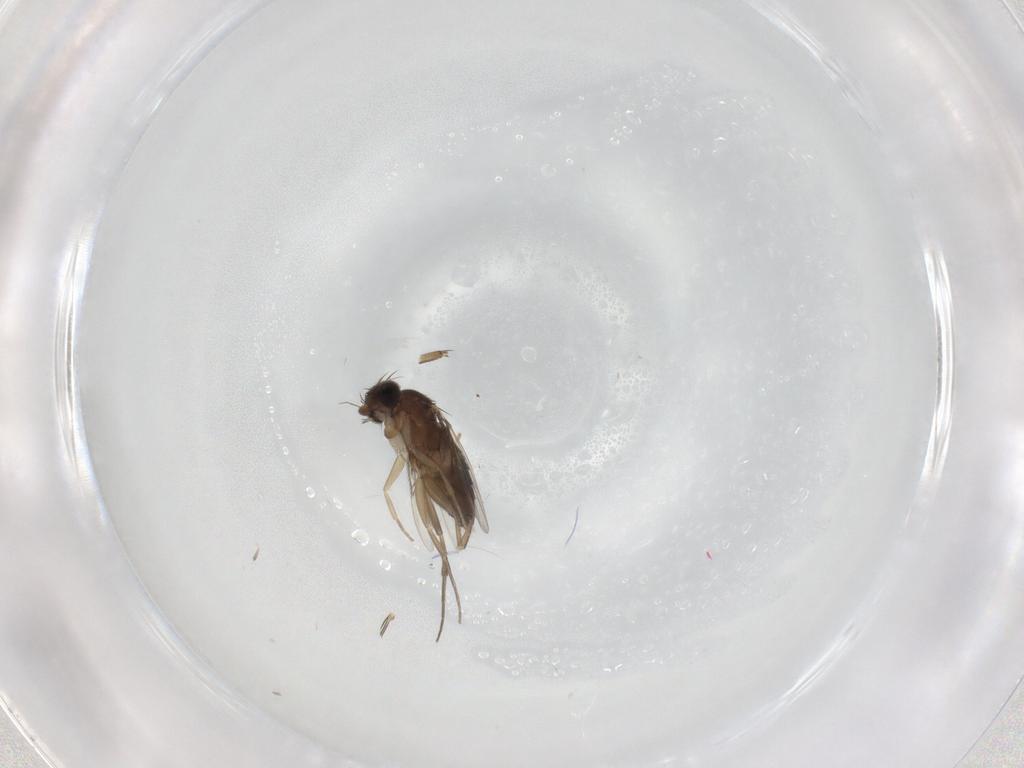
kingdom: Animalia
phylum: Arthropoda
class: Insecta
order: Diptera
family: Phoridae
